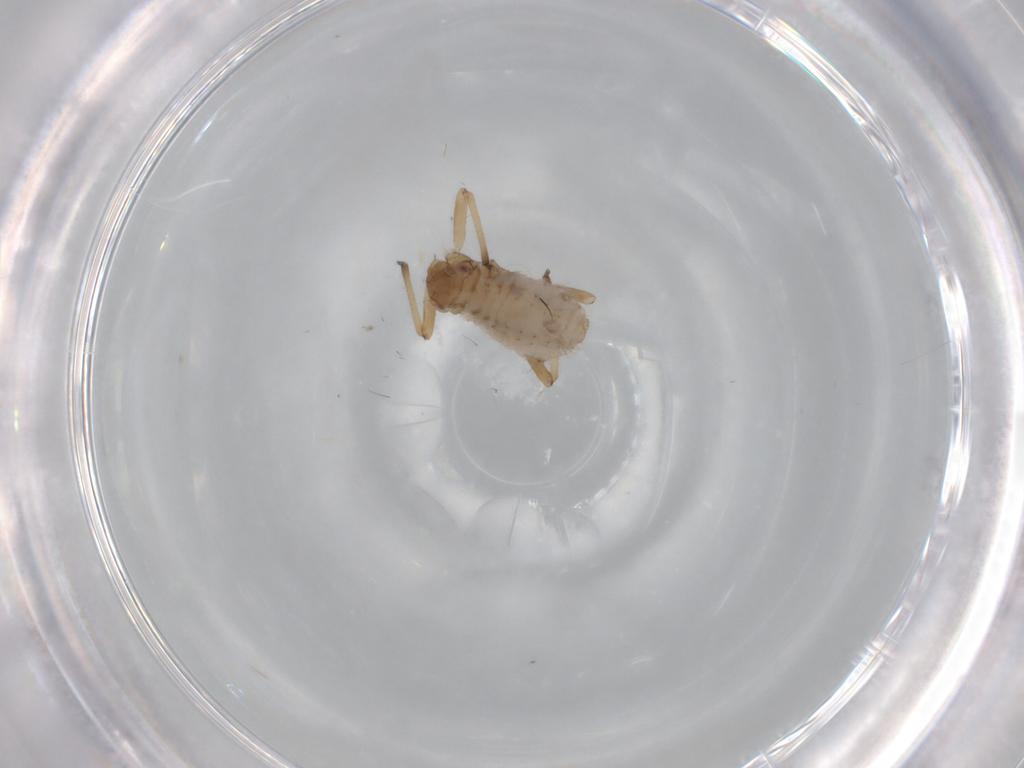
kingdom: Animalia
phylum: Arthropoda
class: Insecta
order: Hemiptera
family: Aphididae
